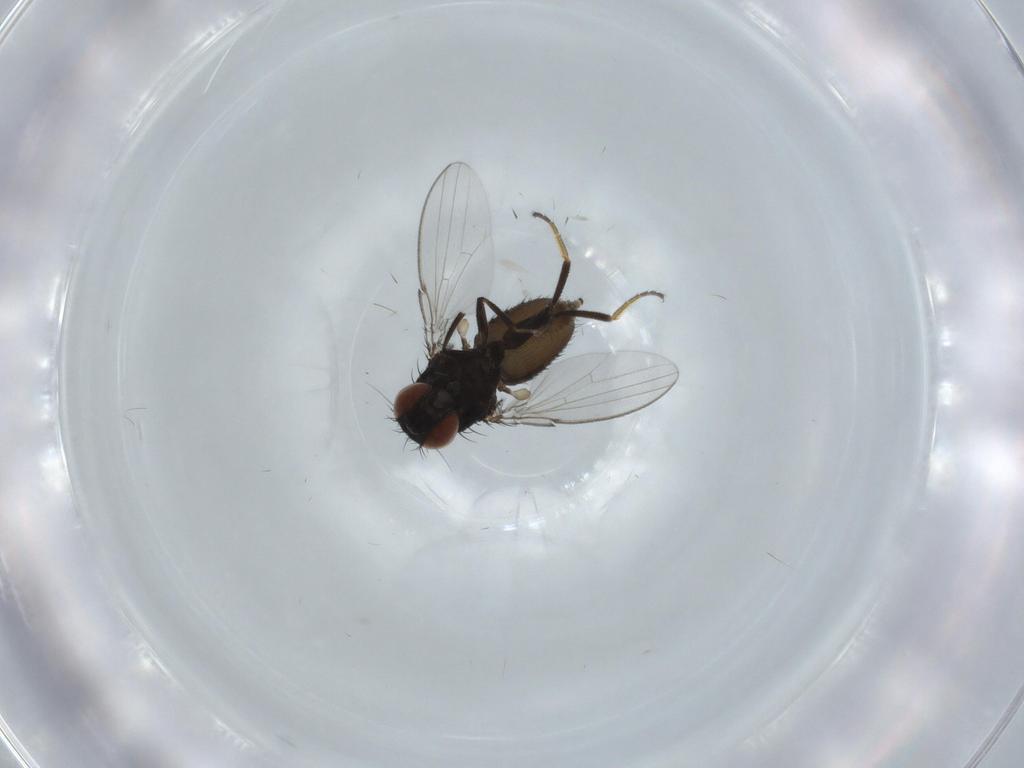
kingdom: Animalia
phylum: Arthropoda
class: Insecta
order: Diptera
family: Milichiidae
